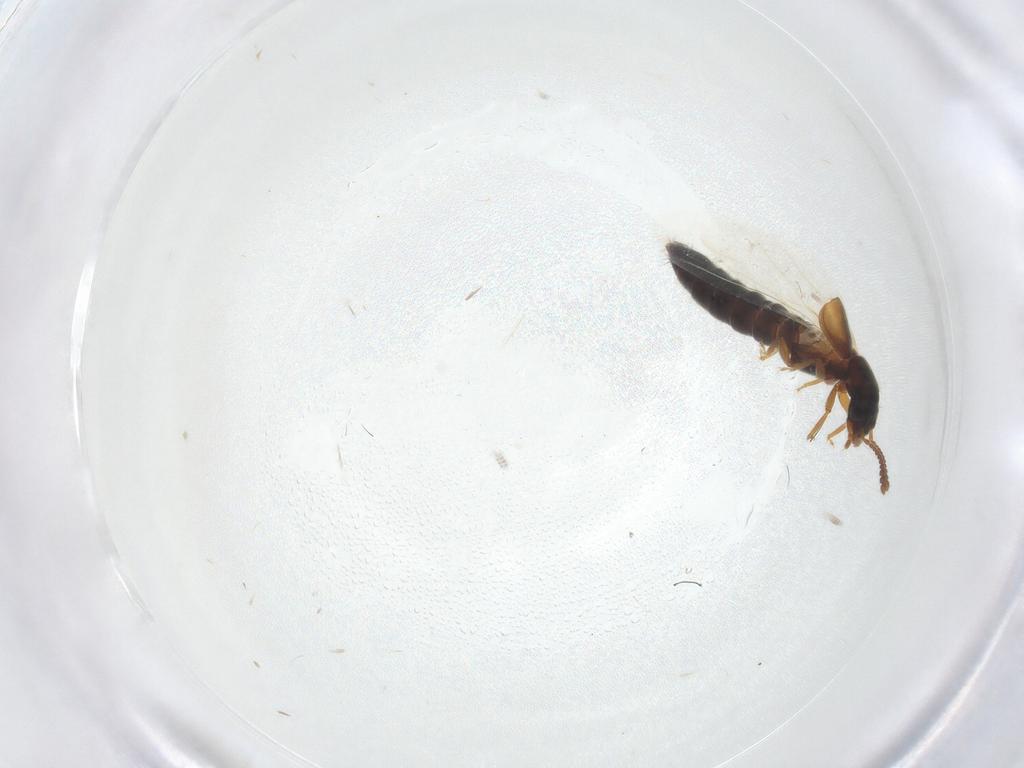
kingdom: Animalia
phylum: Arthropoda
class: Insecta
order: Coleoptera
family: Staphylinidae
